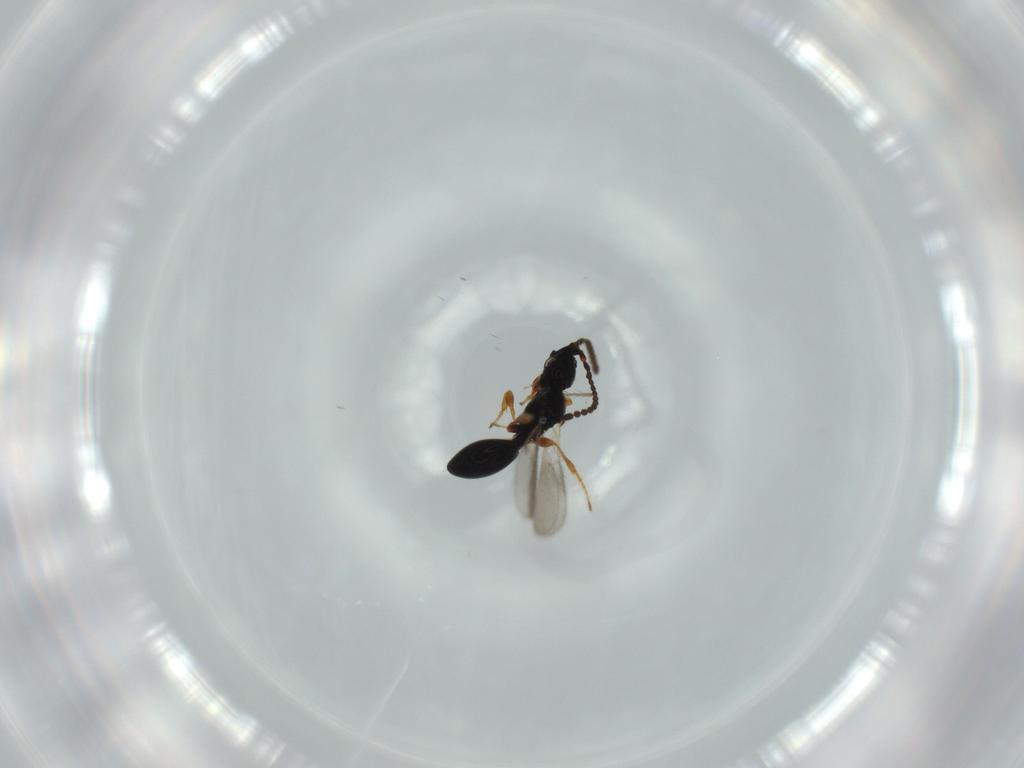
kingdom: Animalia
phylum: Arthropoda
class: Insecta
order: Hymenoptera
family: Diapriidae
